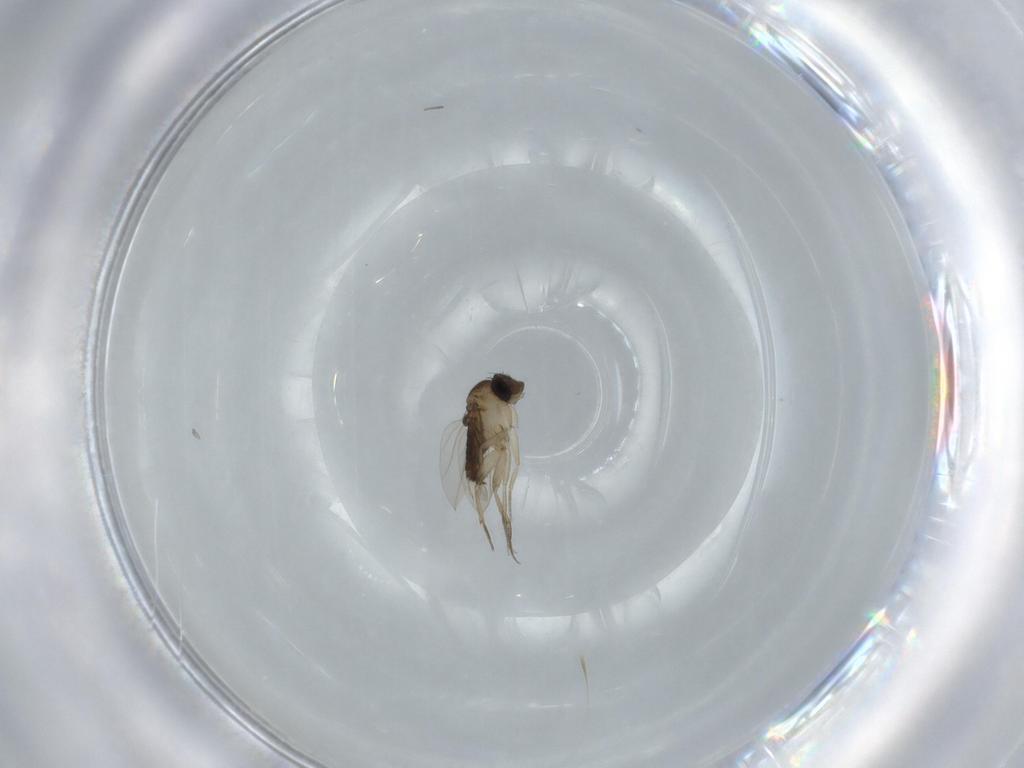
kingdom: Animalia
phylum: Arthropoda
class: Insecta
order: Diptera
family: Phoridae
